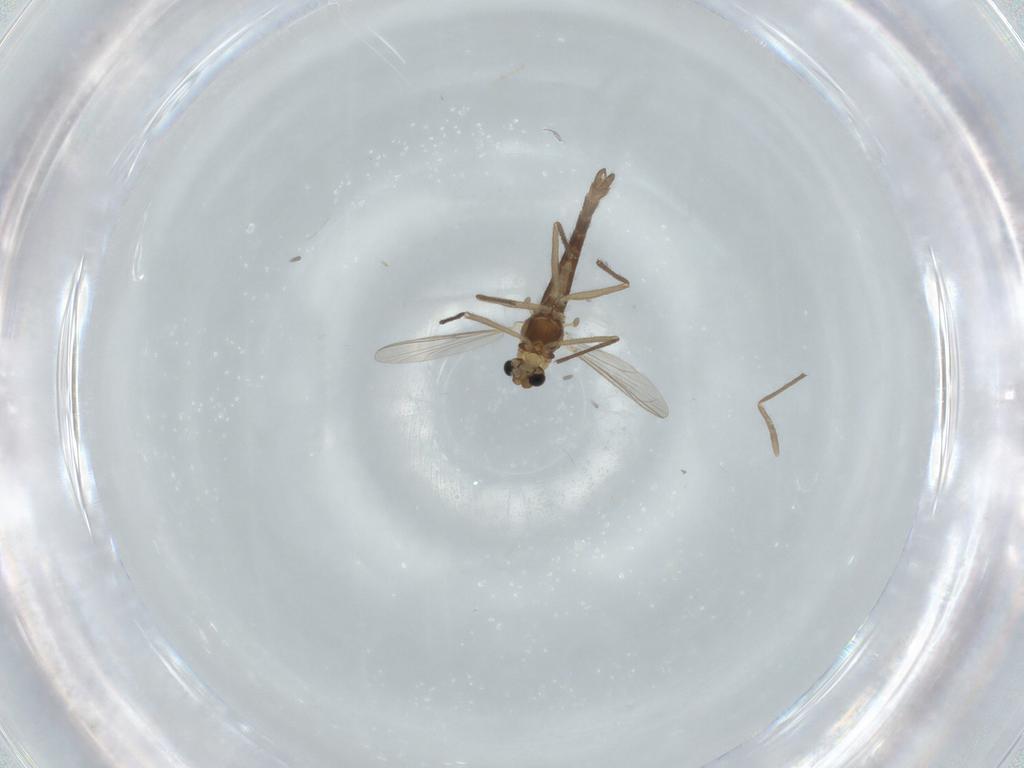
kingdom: Animalia
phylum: Arthropoda
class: Insecta
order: Diptera
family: Chironomidae
